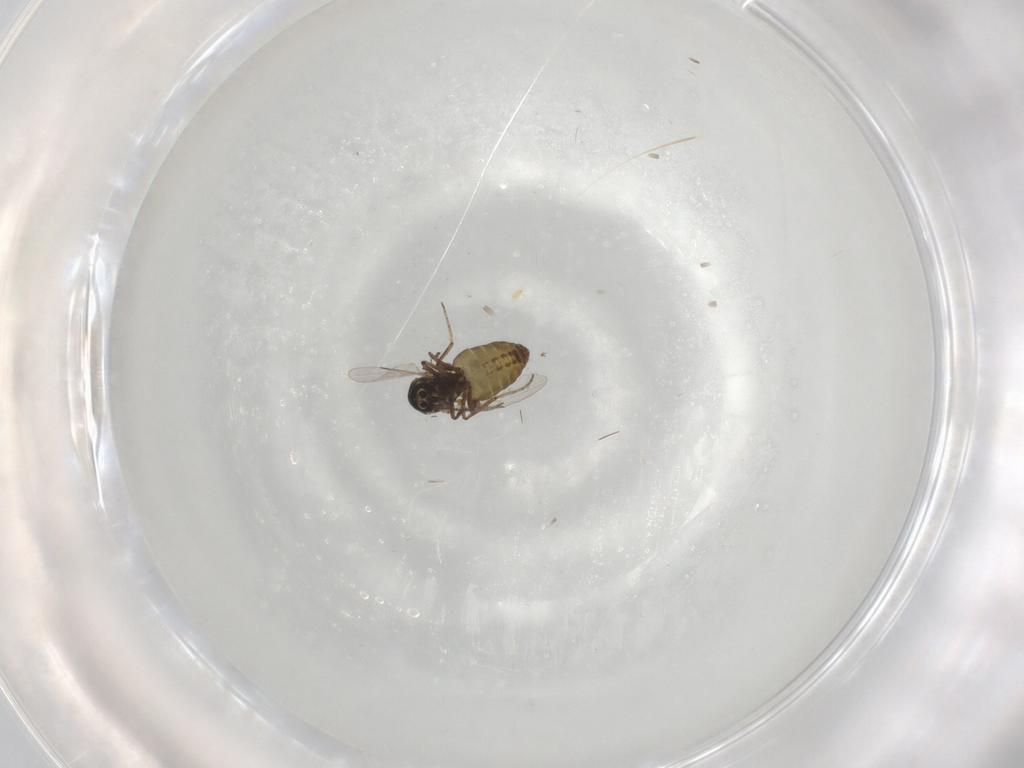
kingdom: Animalia
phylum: Arthropoda
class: Insecta
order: Diptera
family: Ceratopogonidae
